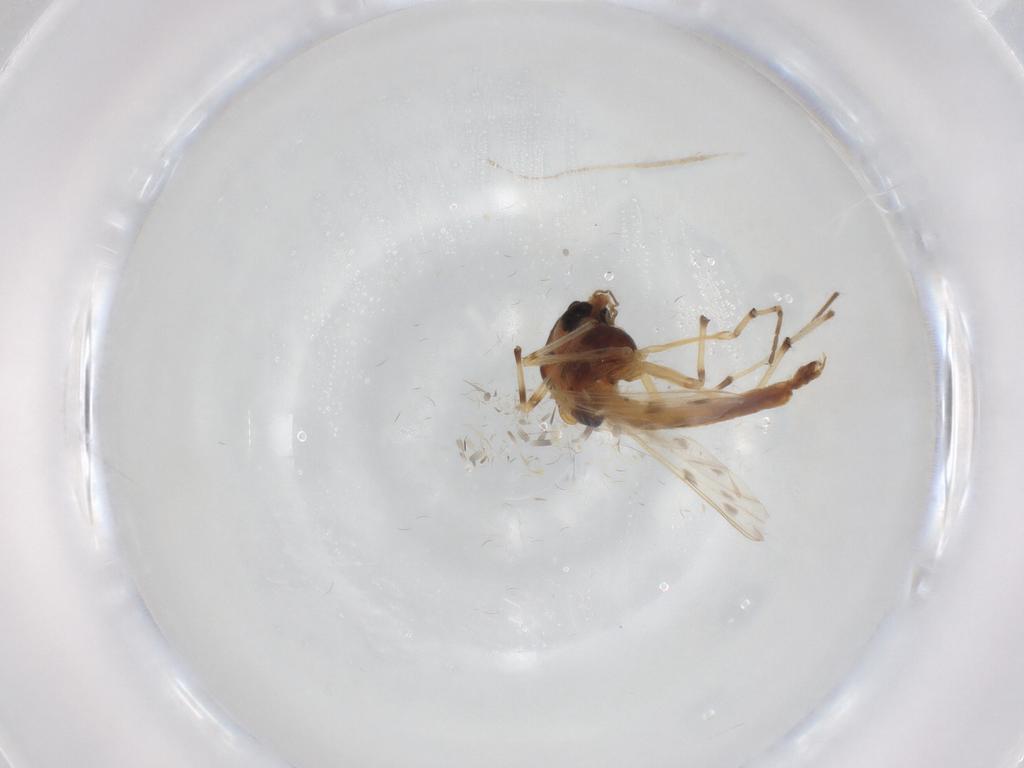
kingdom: Animalia
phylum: Arthropoda
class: Insecta
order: Diptera
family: Chironomidae
